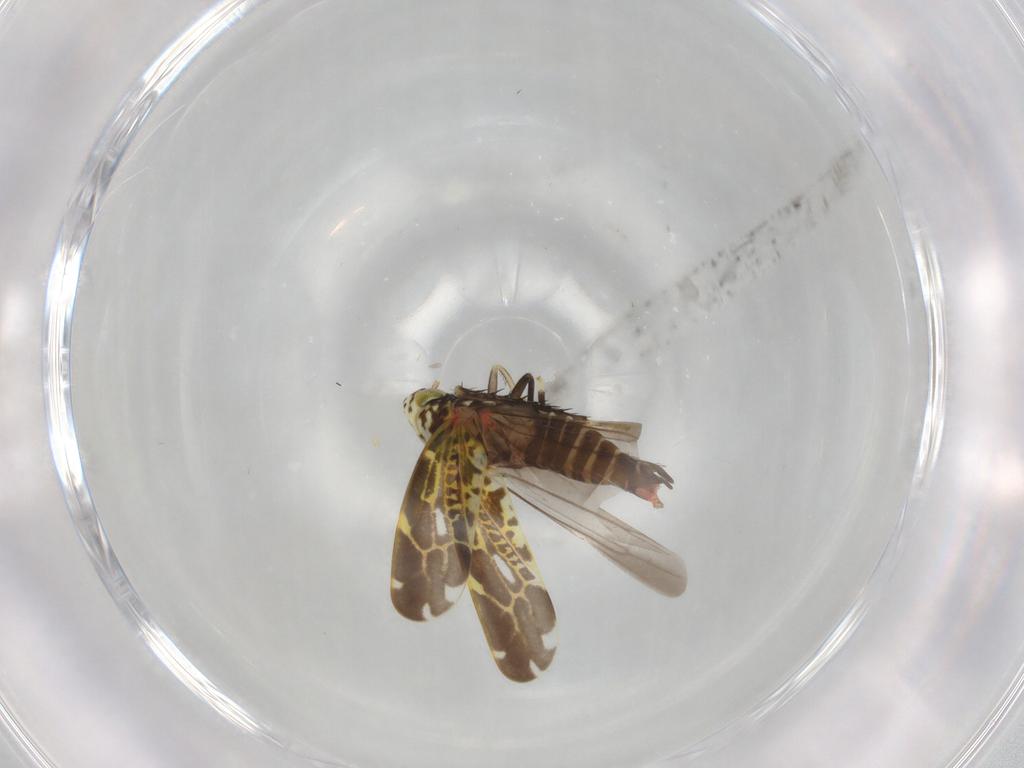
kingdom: Animalia
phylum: Arthropoda
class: Insecta
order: Hemiptera
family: Cicadellidae
